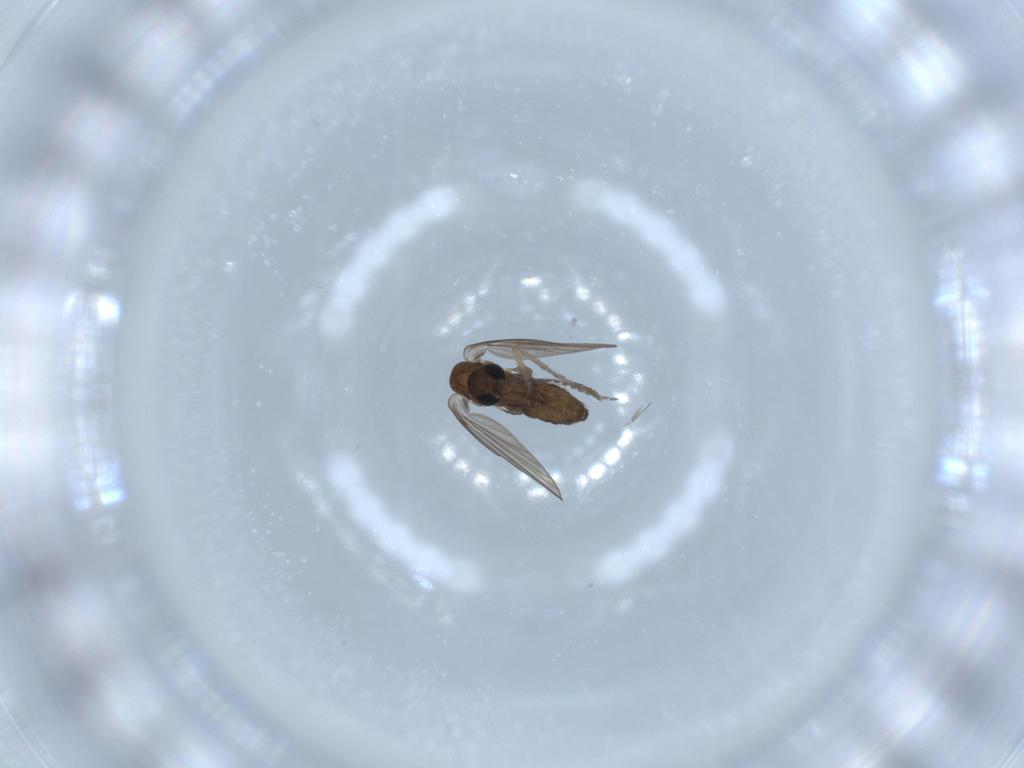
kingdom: Animalia
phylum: Arthropoda
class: Insecta
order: Diptera
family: Psychodidae
